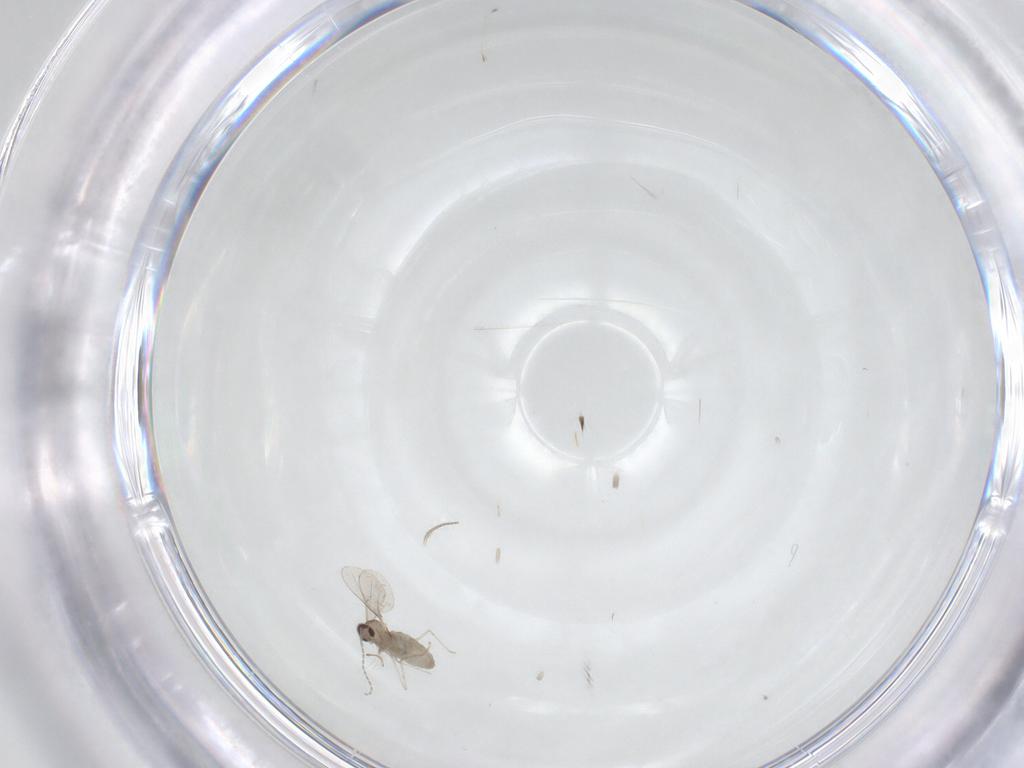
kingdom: Animalia
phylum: Arthropoda
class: Insecta
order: Diptera
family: Cecidomyiidae
